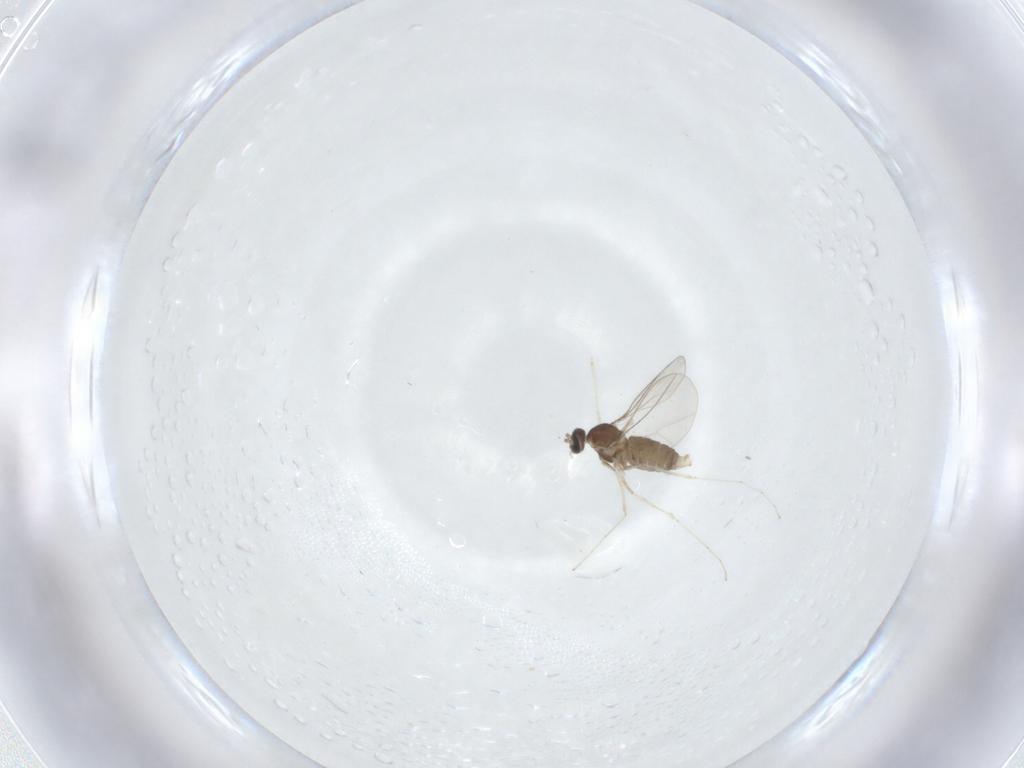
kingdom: Animalia
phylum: Arthropoda
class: Insecta
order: Diptera
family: Cecidomyiidae
